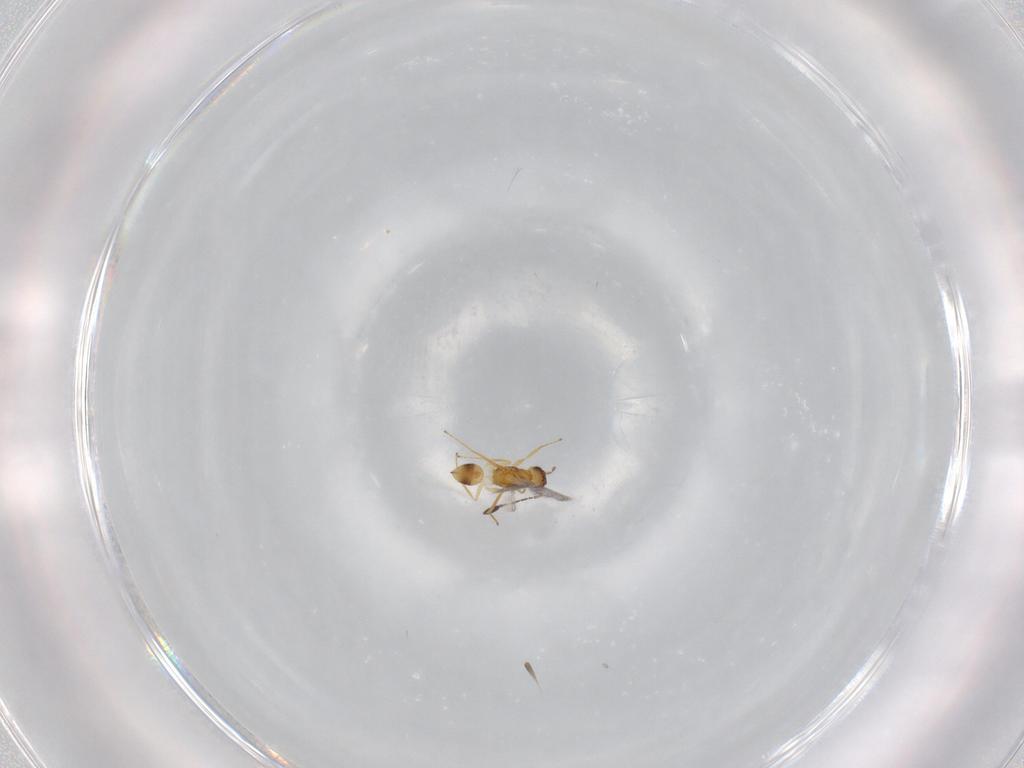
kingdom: Animalia
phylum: Arthropoda
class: Insecta
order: Hymenoptera
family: Mymaridae
